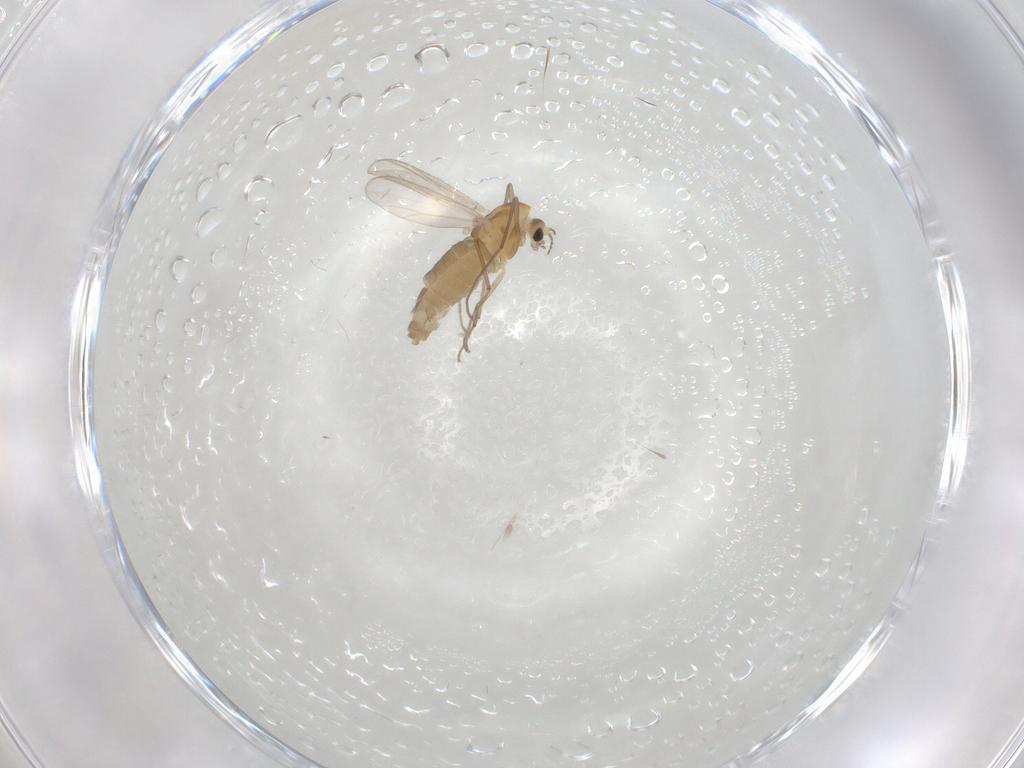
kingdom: Animalia
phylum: Arthropoda
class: Insecta
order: Diptera
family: Chironomidae
